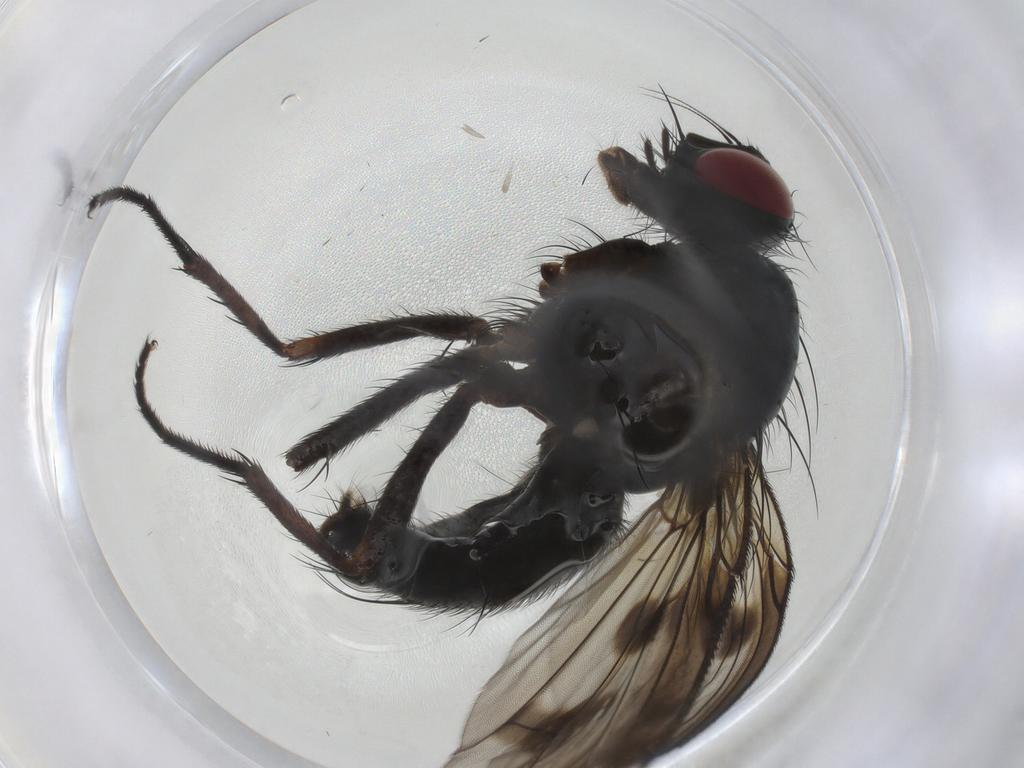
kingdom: Animalia
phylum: Arthropoda
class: Insecta
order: Diptera
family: Muscidae
